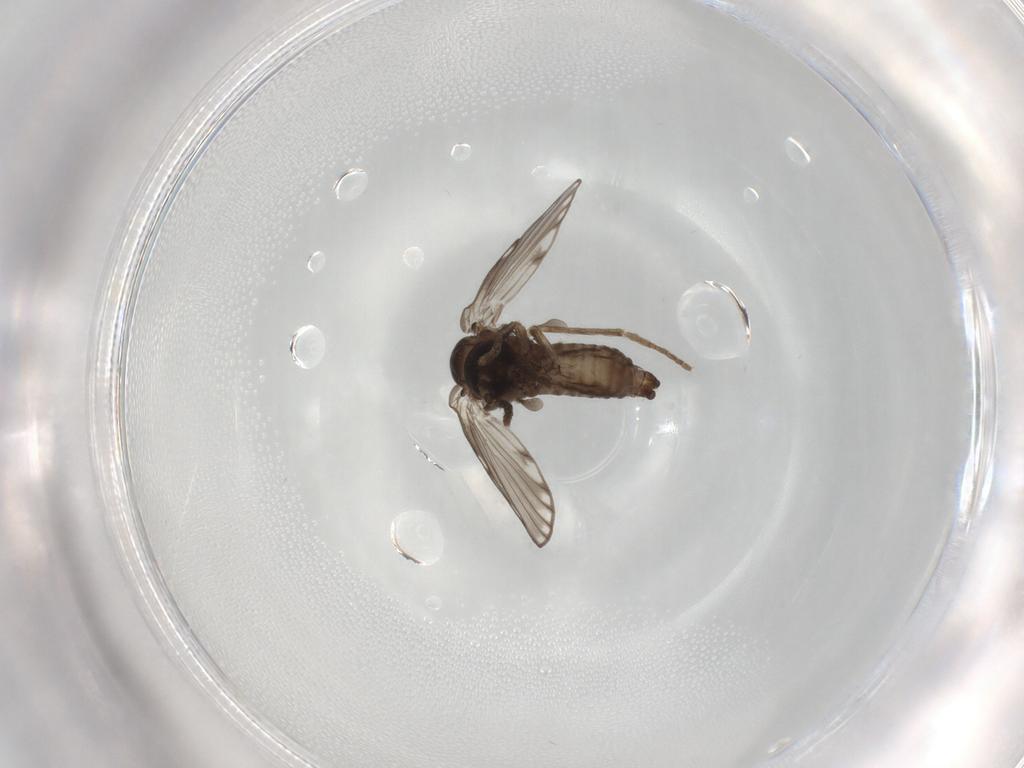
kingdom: Animalia
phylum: Arthropoda
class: Insecta
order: Diptera
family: Psychodidae
